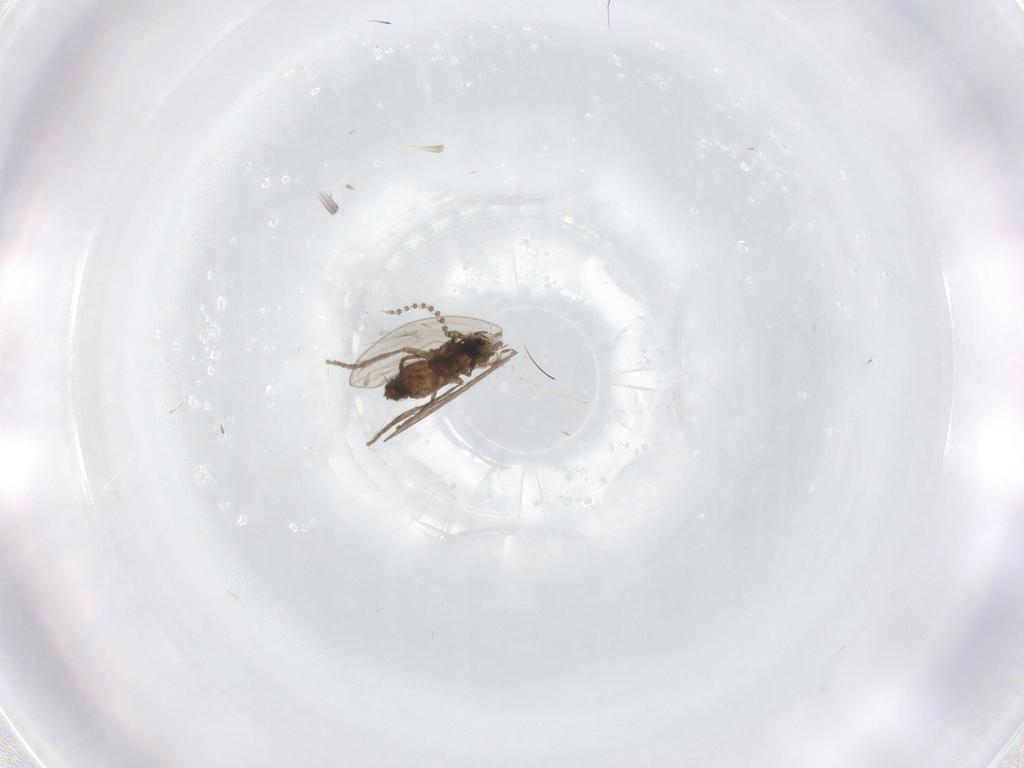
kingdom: Animalia
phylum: Arthropoda
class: Insecta
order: Diptera
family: Psychodidae
